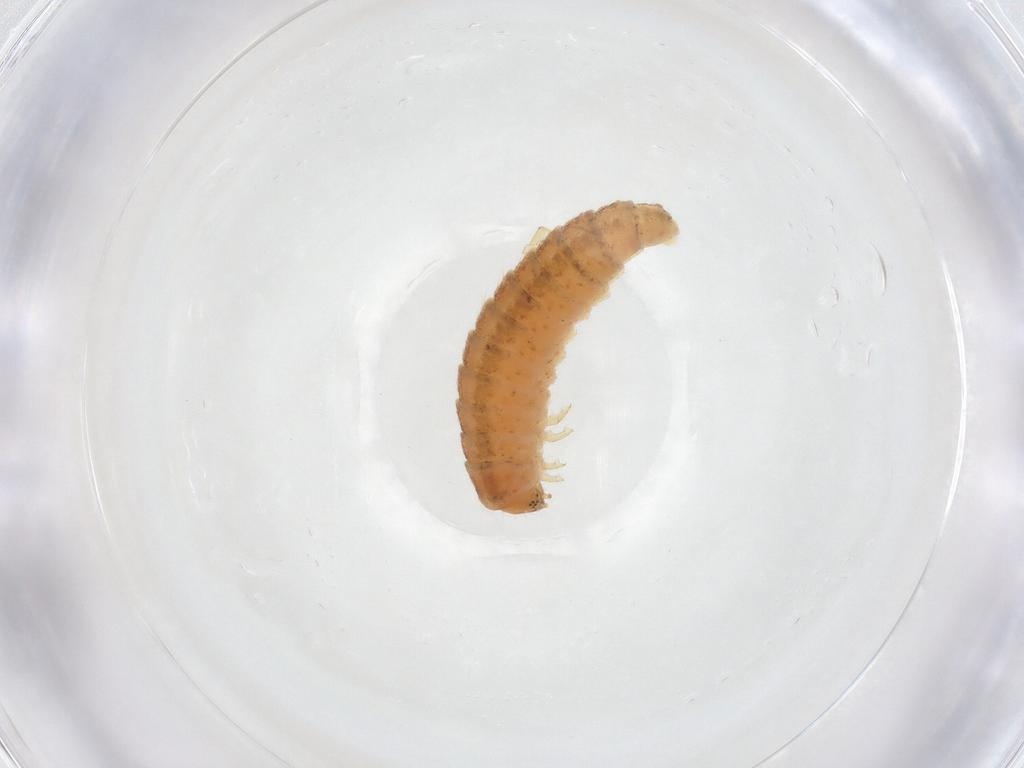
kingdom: Animalia
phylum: Arthropoda
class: Insecta
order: Coleoptera
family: Byturidae
